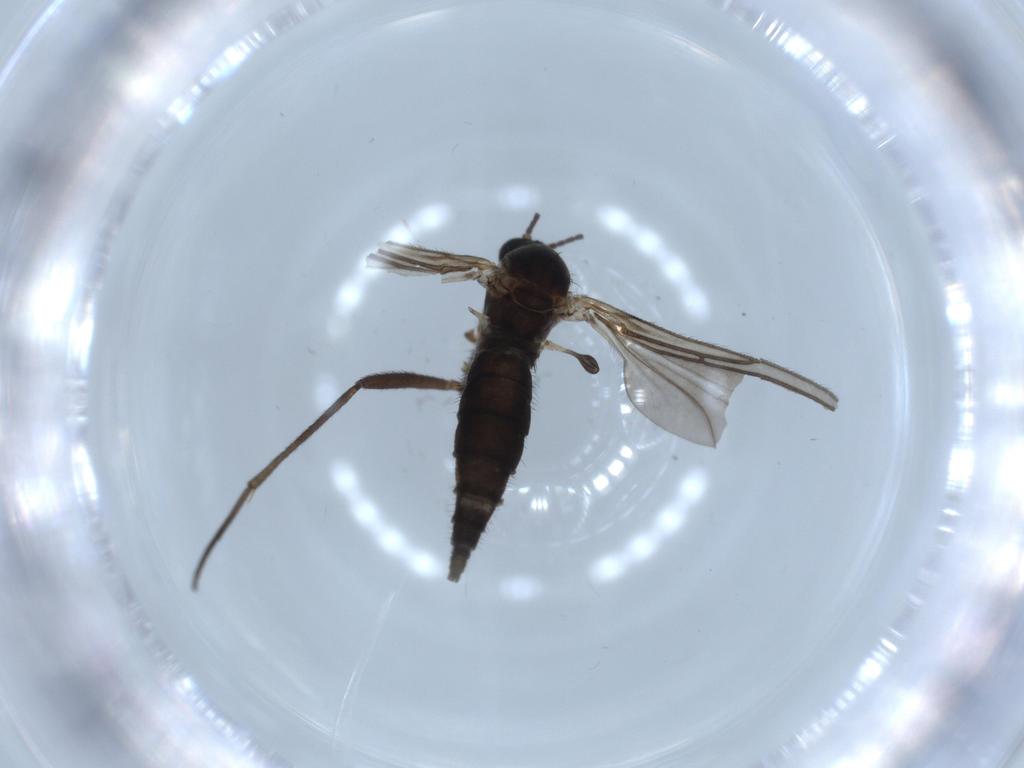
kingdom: Animalia
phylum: Arthropoda
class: Insecta
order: Diptera
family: Sciaridae
